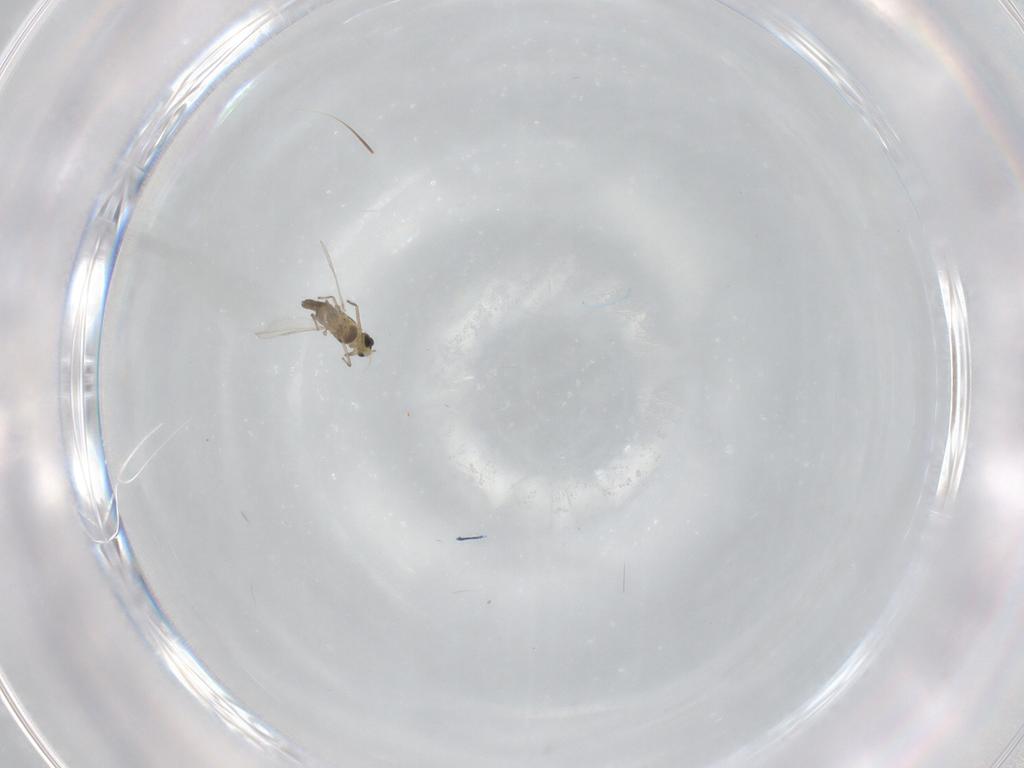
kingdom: Animalia
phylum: Arthropoda
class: Insecta
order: Diptera
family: Chironomidae
